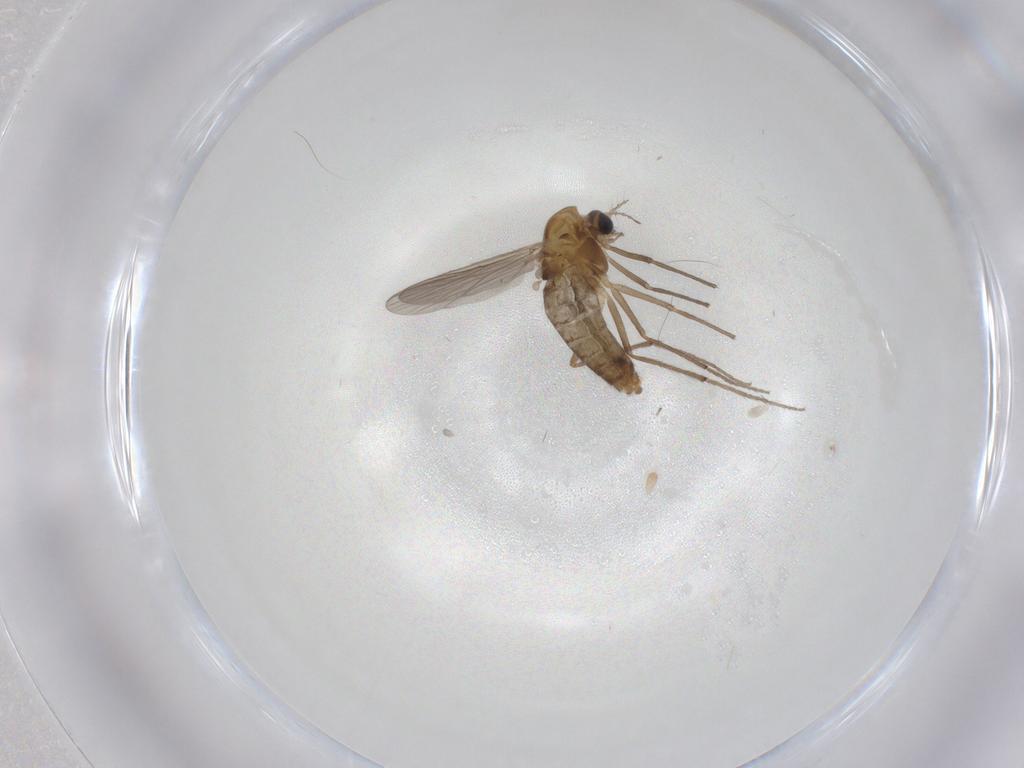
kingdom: Animalia
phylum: Arthropoda
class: Insecta
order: Diptera
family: Chironomidae
